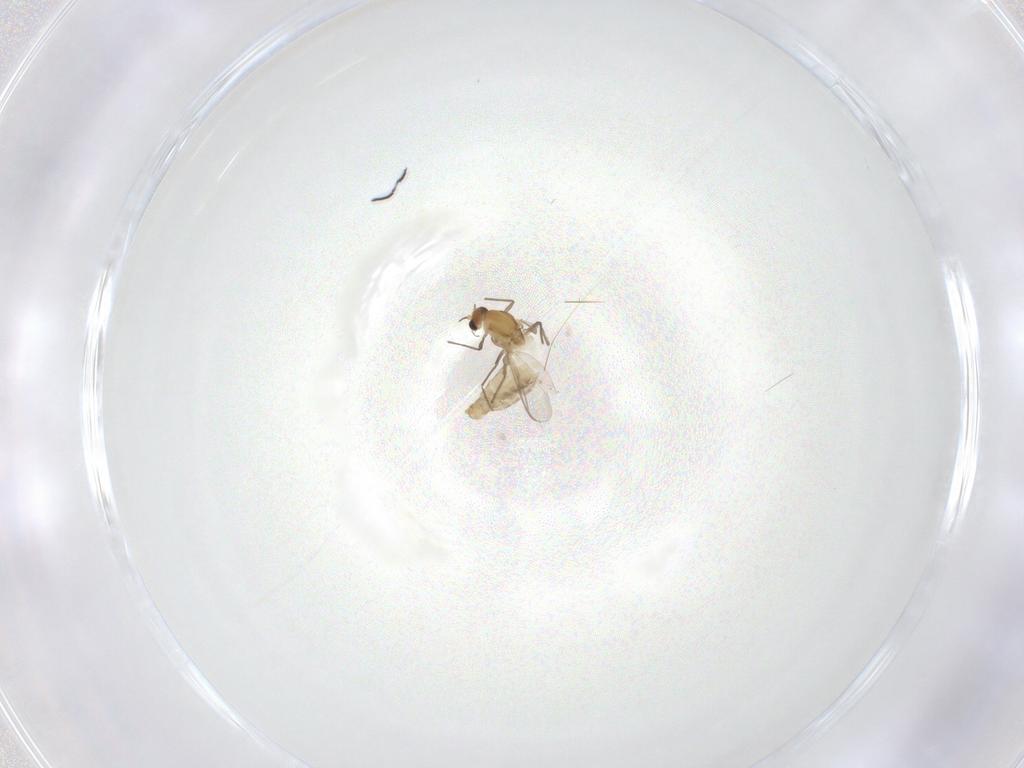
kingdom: Animalia
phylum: Arthropoda
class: Insecta
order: Diptera
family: Chironomidae
